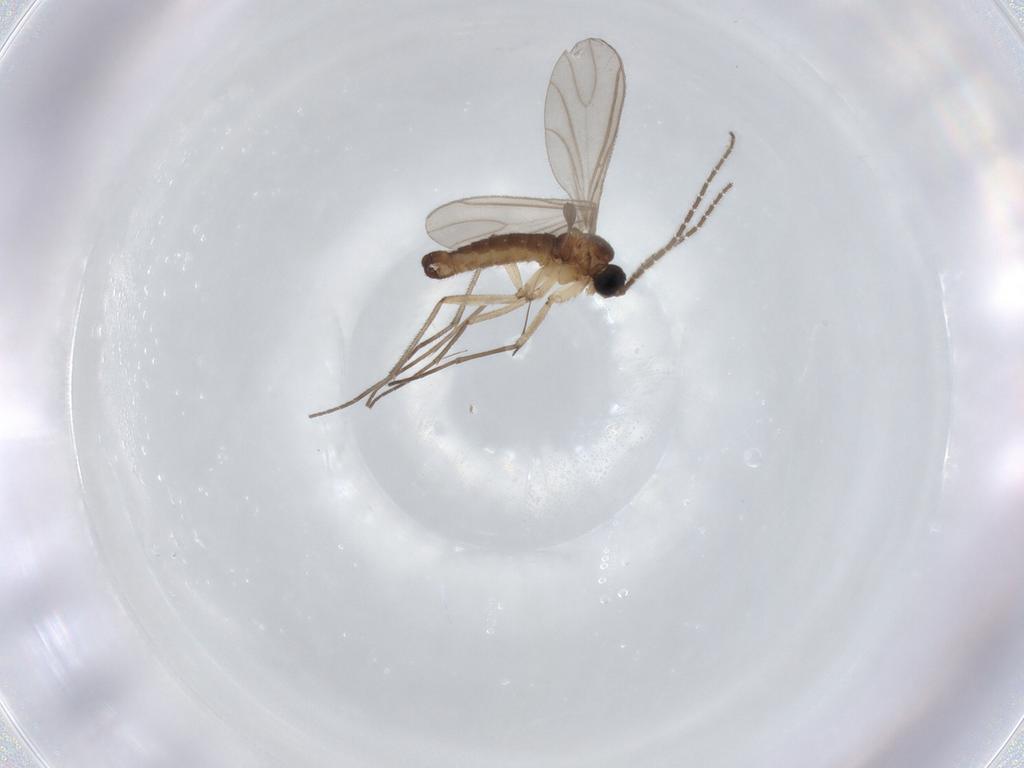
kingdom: Animalia
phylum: Arthropoda
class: Insecta
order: Diptera
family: Sciaridae
